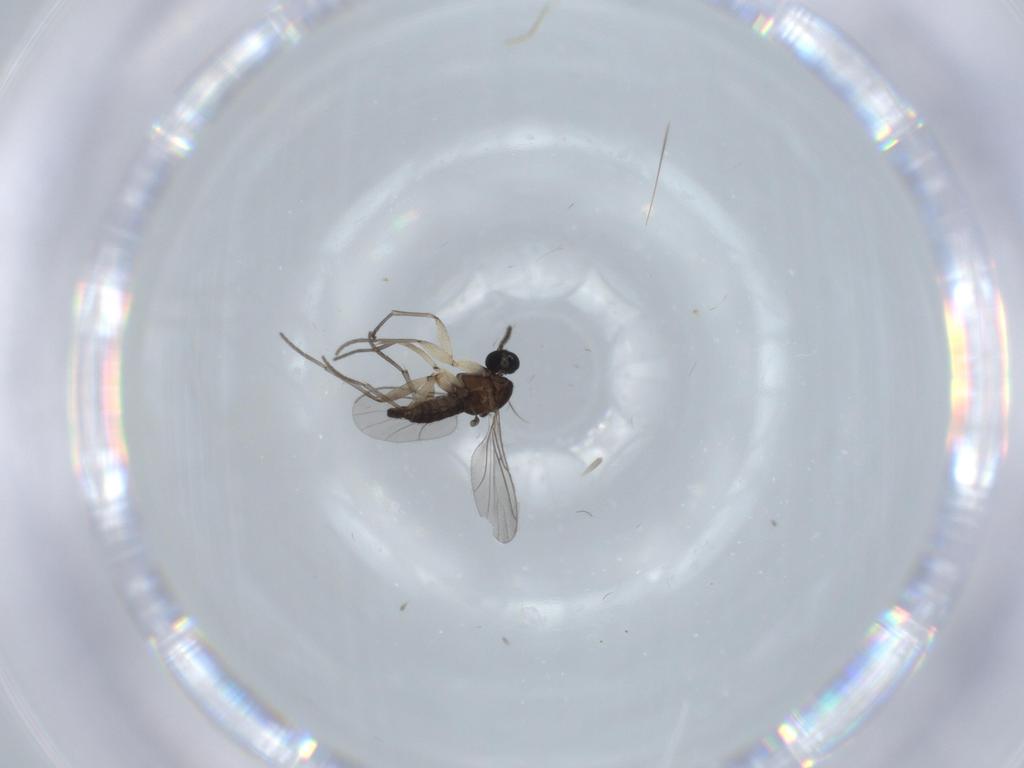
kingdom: Animalia
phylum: Arthropoda
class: Insecta
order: Diptera
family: Sciaridae
